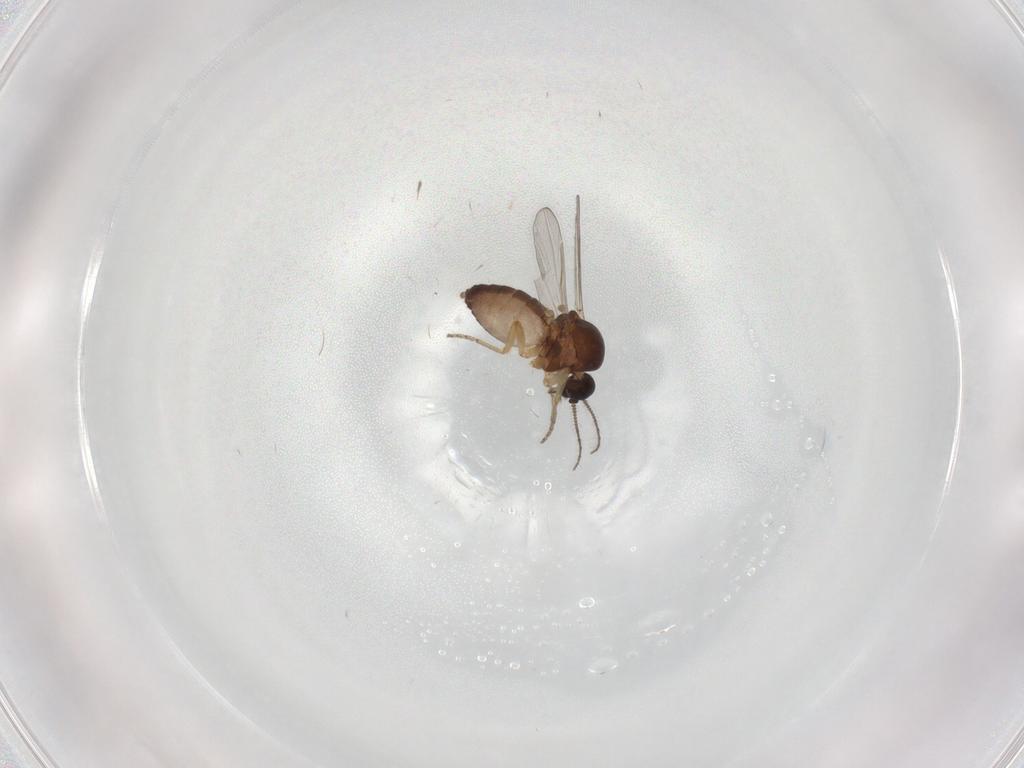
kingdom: Animalia
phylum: Arthropoda
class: Insecta
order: Diptera
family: Ceratopogonidae
